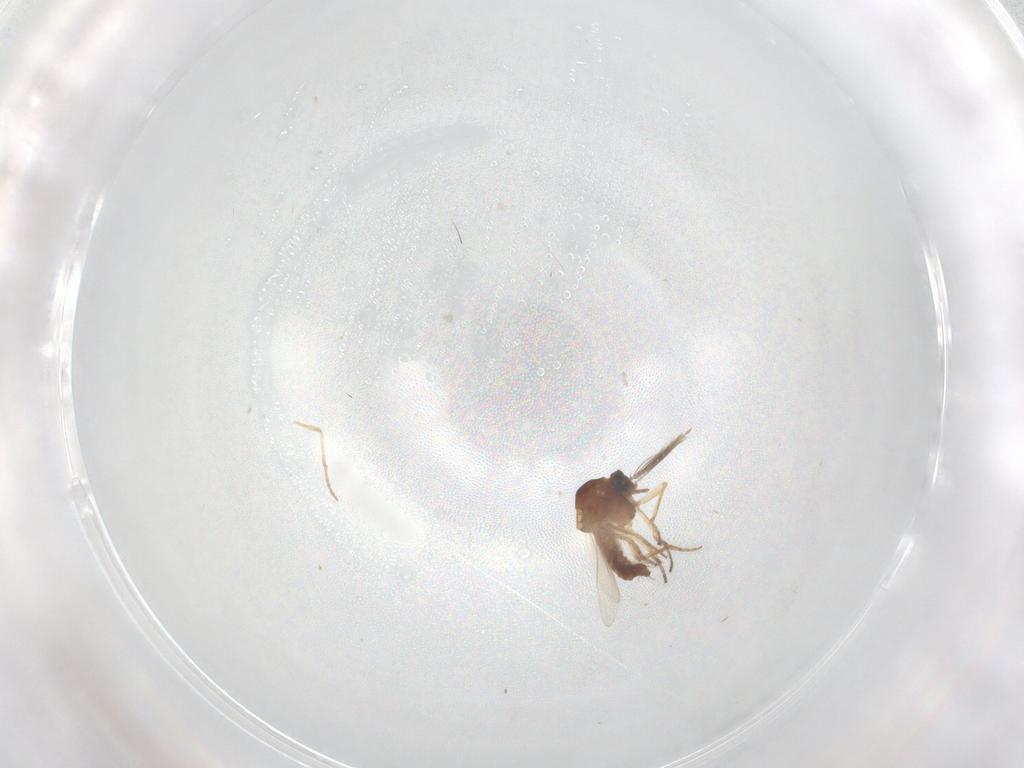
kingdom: Animalia
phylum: Arthropoda
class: Insecta
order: Diptera
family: Ceratopogonidae
